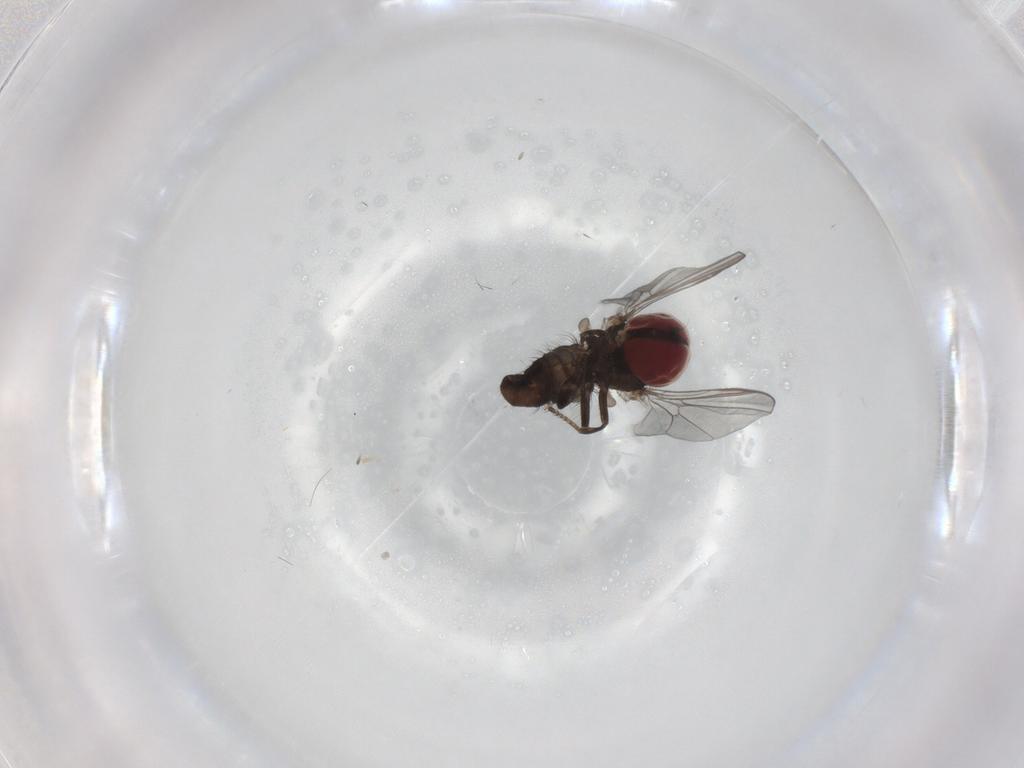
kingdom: Animalia
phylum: Arthropoda
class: Insecta
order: Diptera
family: Pipunculidae
